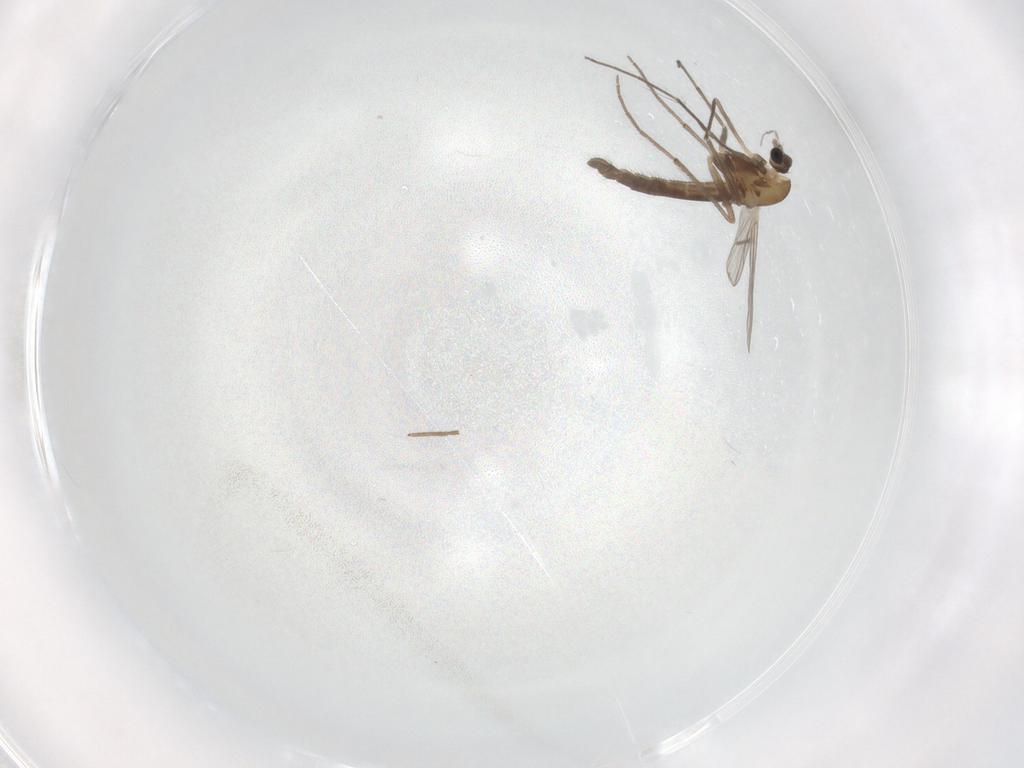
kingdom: Animalia
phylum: Arthropoda
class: Insecta
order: Diptera
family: Chironomidae
